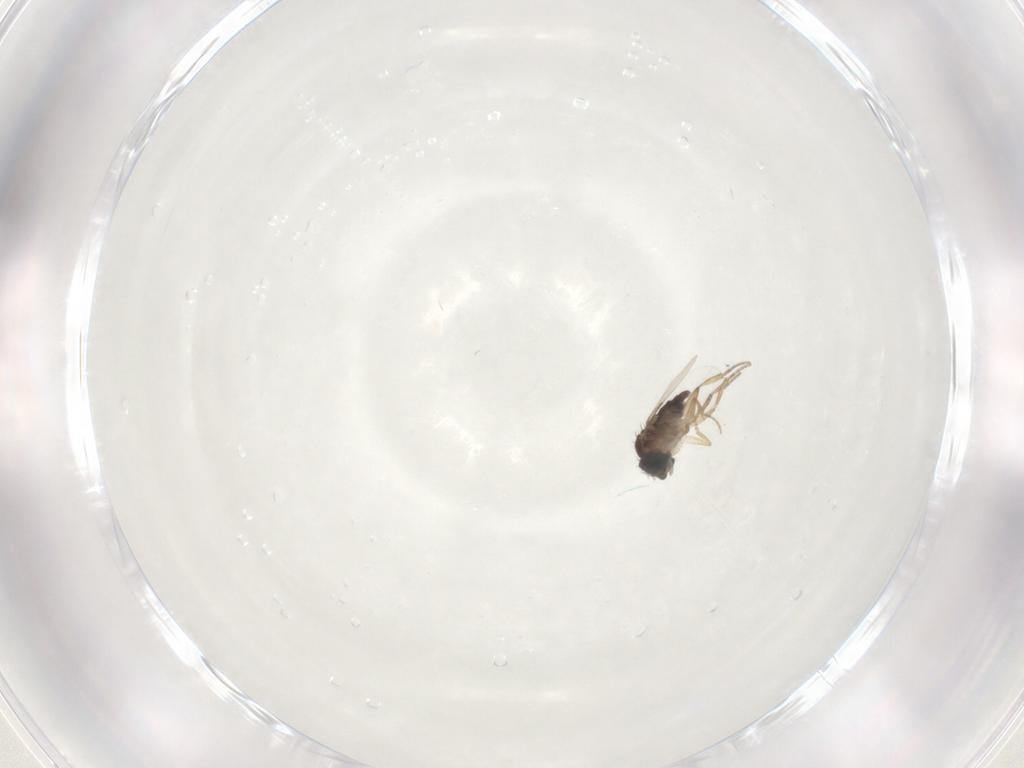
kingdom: Animalia
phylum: Arthropoda
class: Insecta
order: Diptera
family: Phoridae
